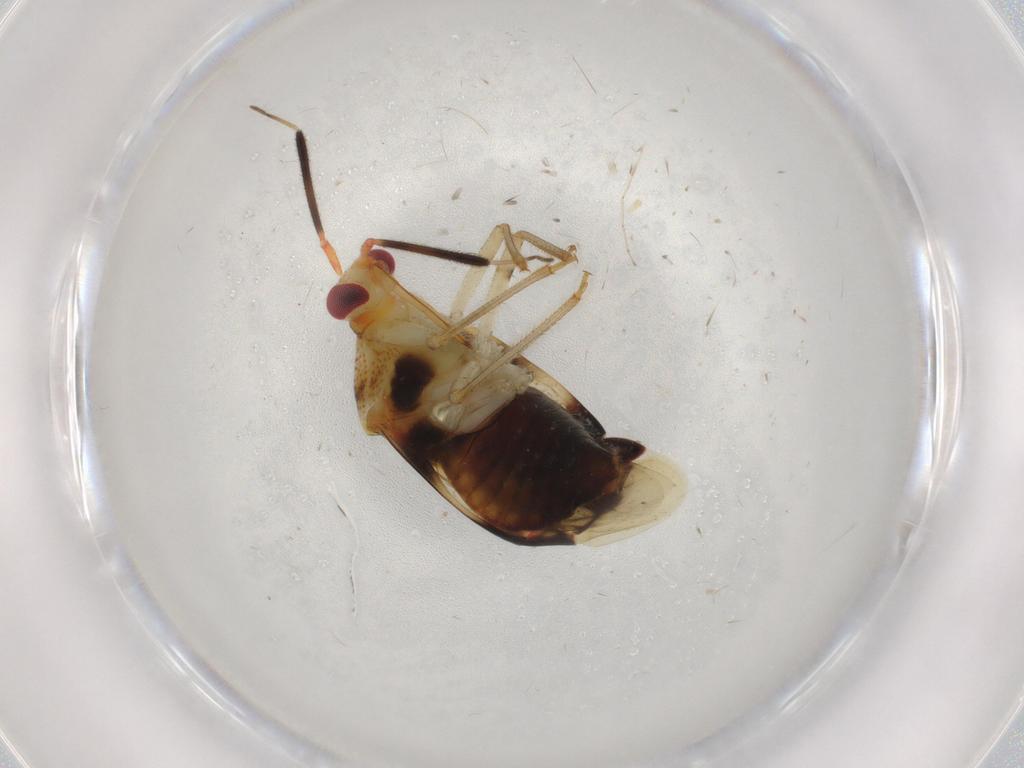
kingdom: Animalia
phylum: Arthropoda
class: Insecta
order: Hemiptera
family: Miridae
